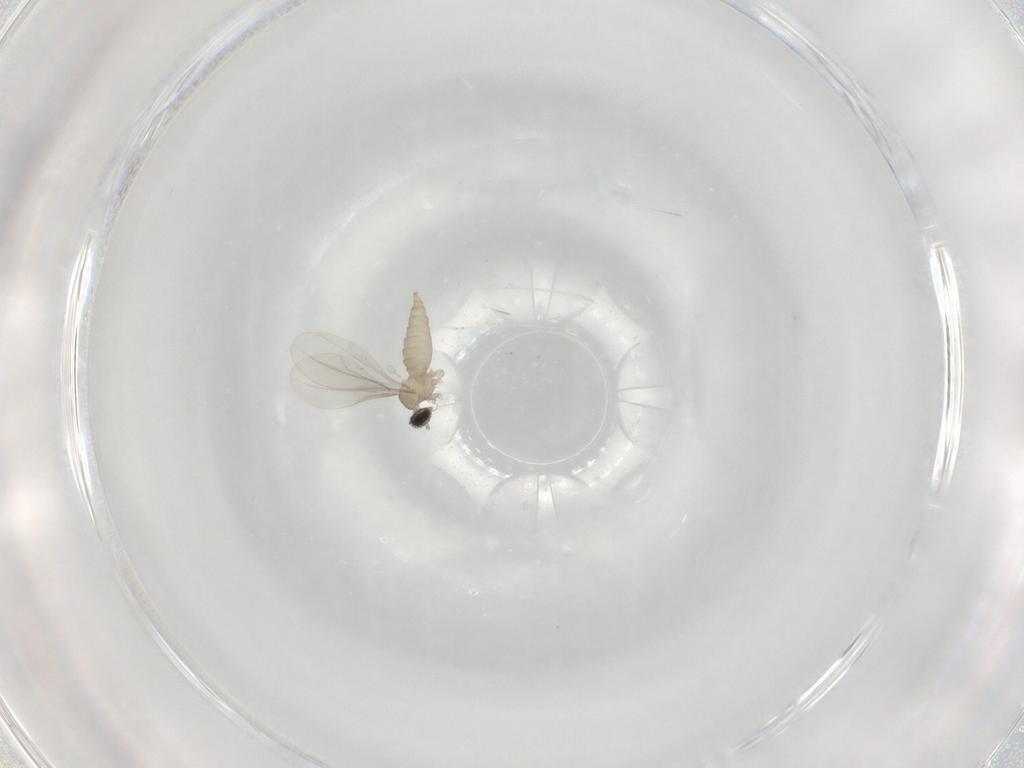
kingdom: Animalia
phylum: Arthropoda
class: Insecta
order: Diptera
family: Cecidomyiidae
